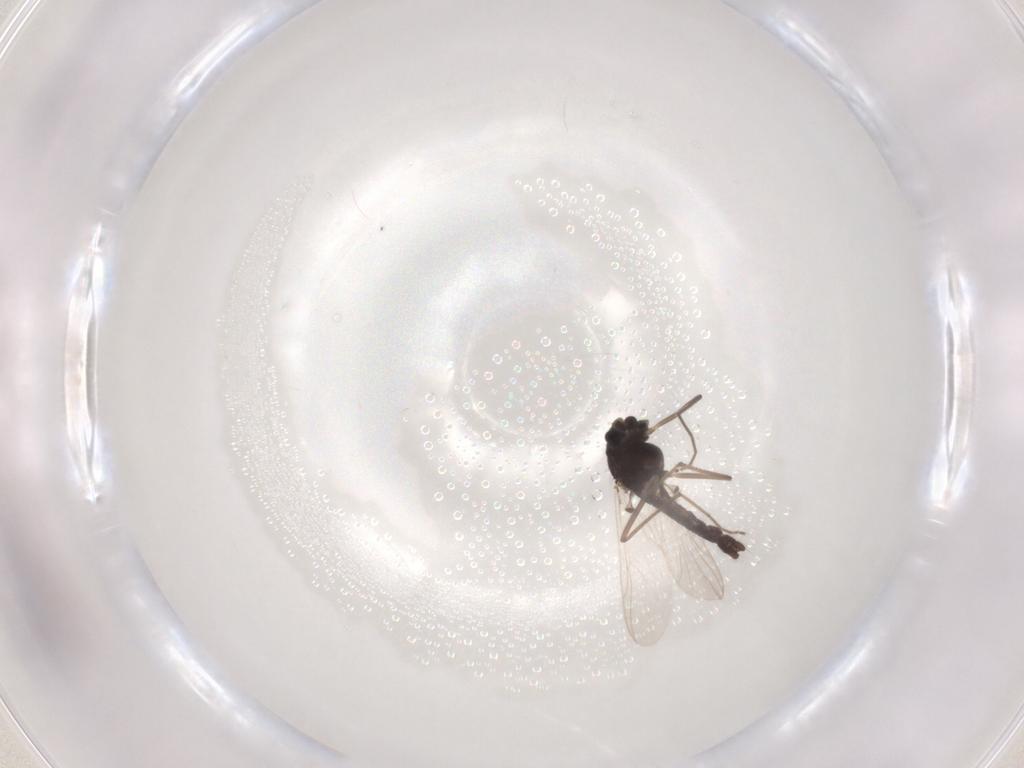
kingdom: Animalia
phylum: Arthropoda
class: Insecta
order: Diptera
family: Chironomidae
